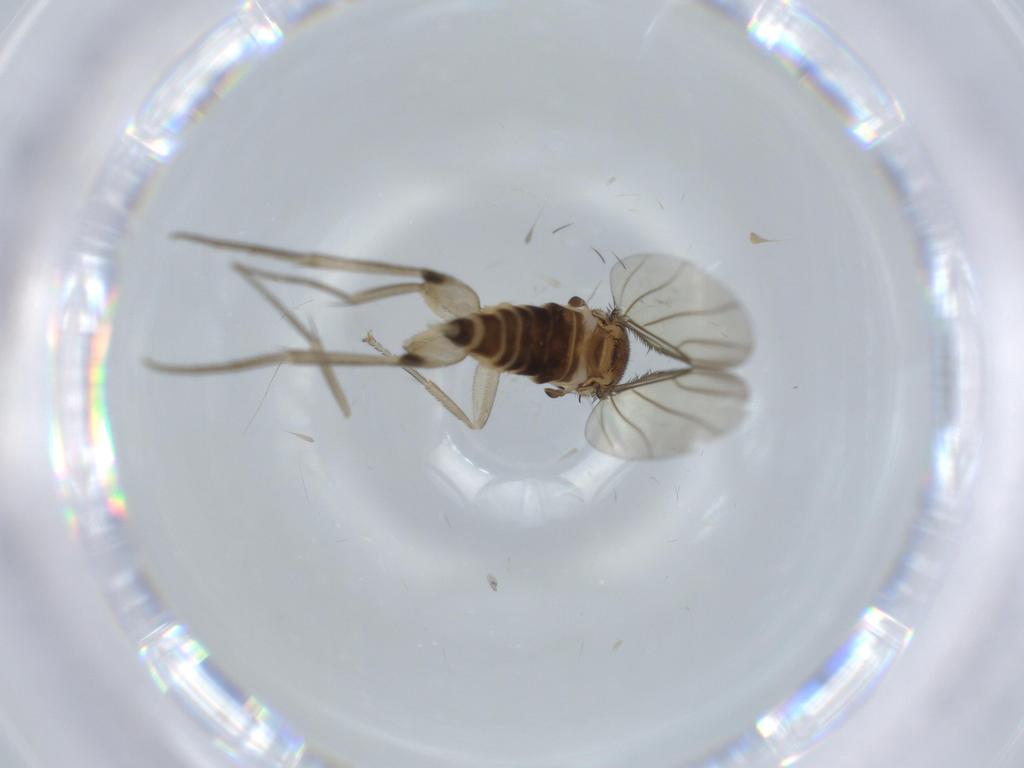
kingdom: Animalia
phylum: Arthropoda
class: Insecta
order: Diptera
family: Phoridae
